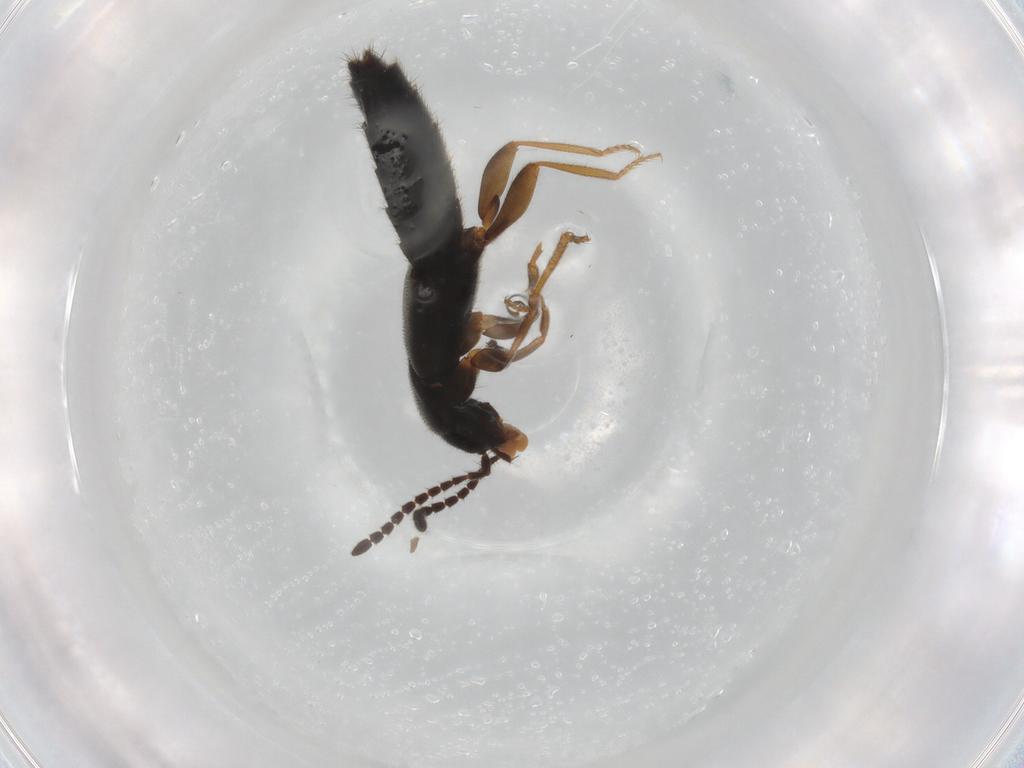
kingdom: Animalia
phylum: Arthropoda
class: Insecta
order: Coleoptera
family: Staphylinidae
